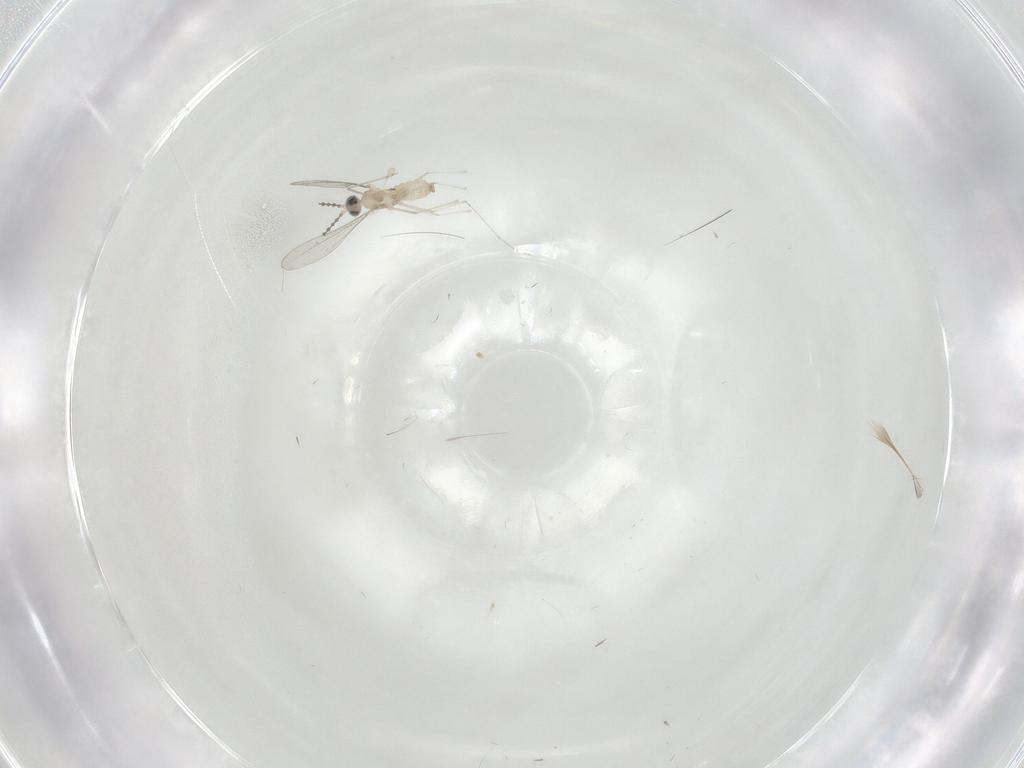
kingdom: Animalia
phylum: Arthropoda
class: Insecta
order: Diptera
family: Cecidomyiidae
